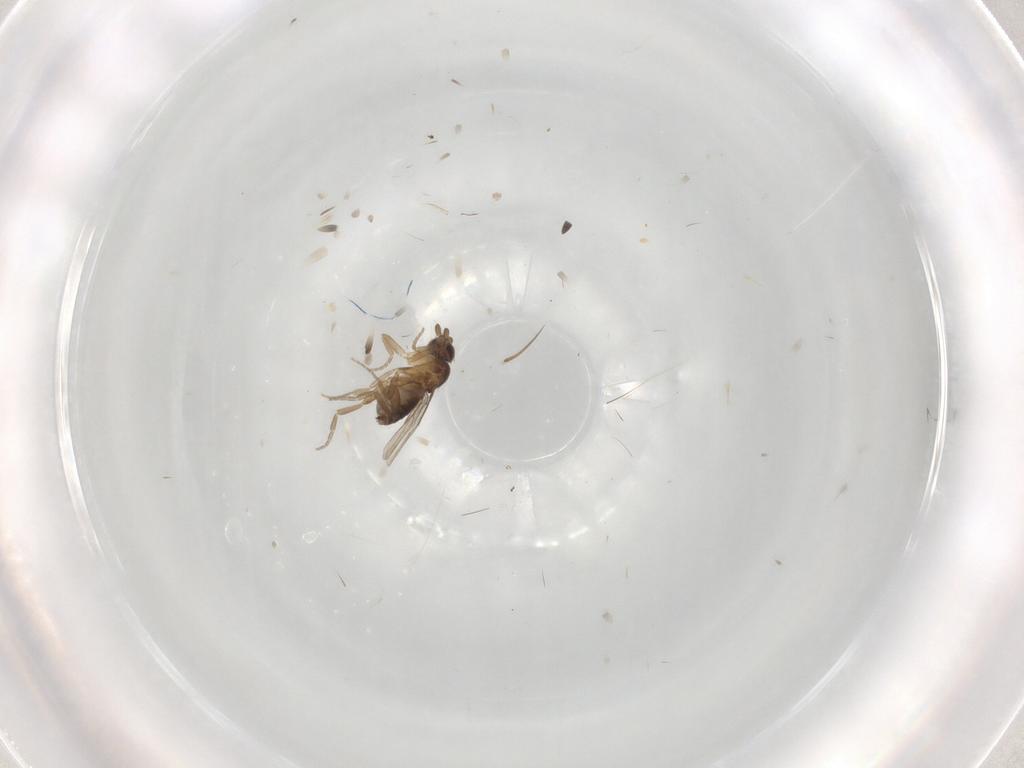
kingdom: Animalia
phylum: Arthropoda
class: Insecta
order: Diptera
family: Phoridae
